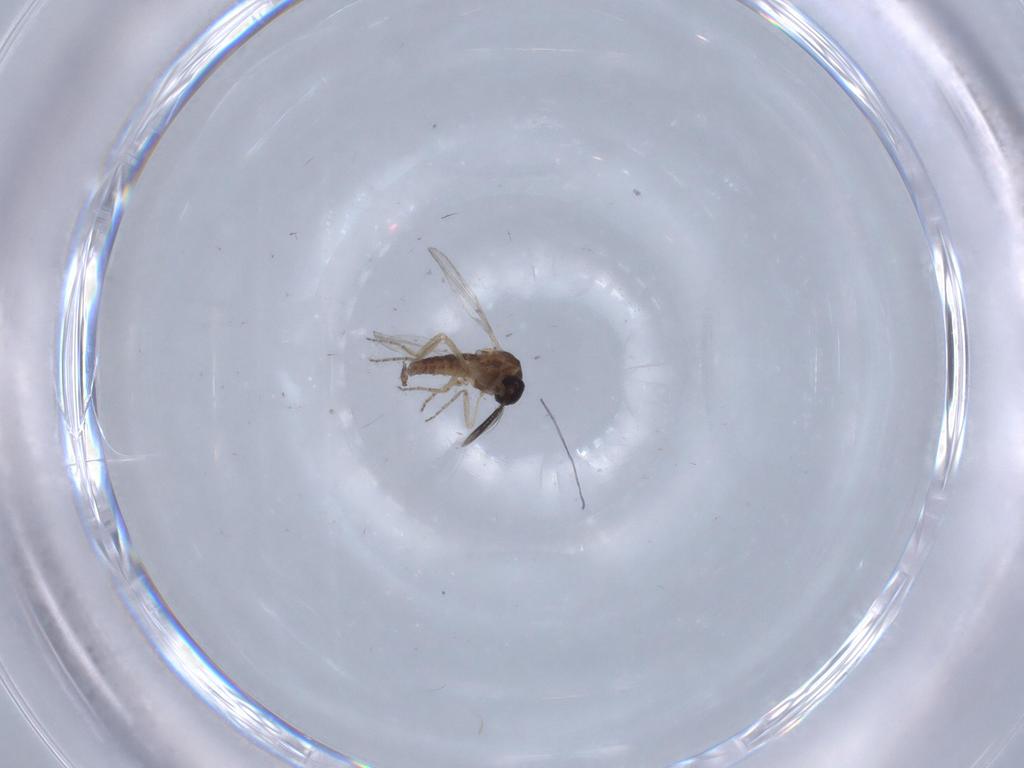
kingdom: Animalia
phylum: Arthropoda
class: Insecta
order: Diptera
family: Ceratopogonidae
